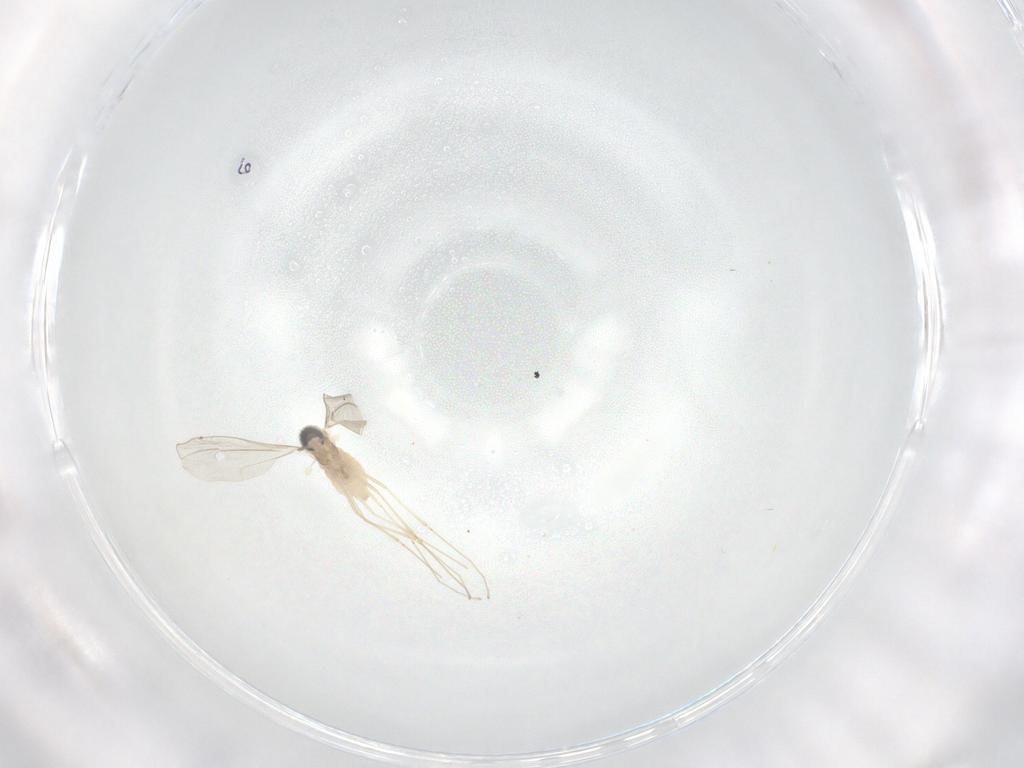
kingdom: Animalia
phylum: Arthropoda
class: Insecta
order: Diptera
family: Cecidomyiidae
